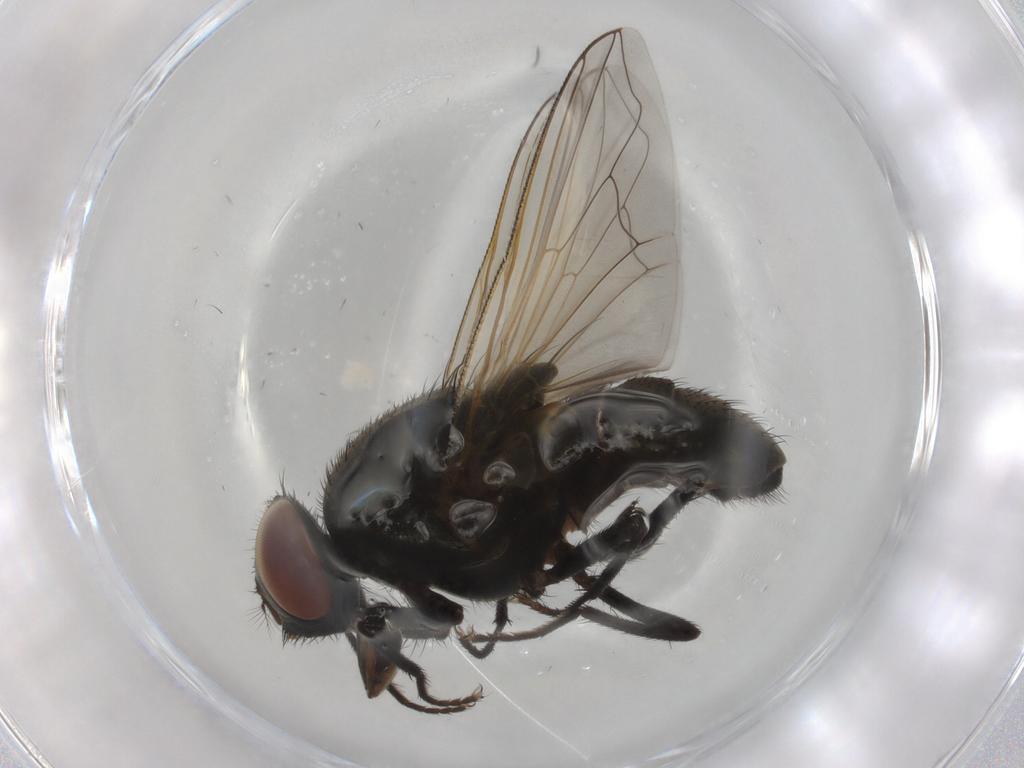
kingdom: Animalia
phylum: Arthropoda
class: Insecta
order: Diptera
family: Muscidae
